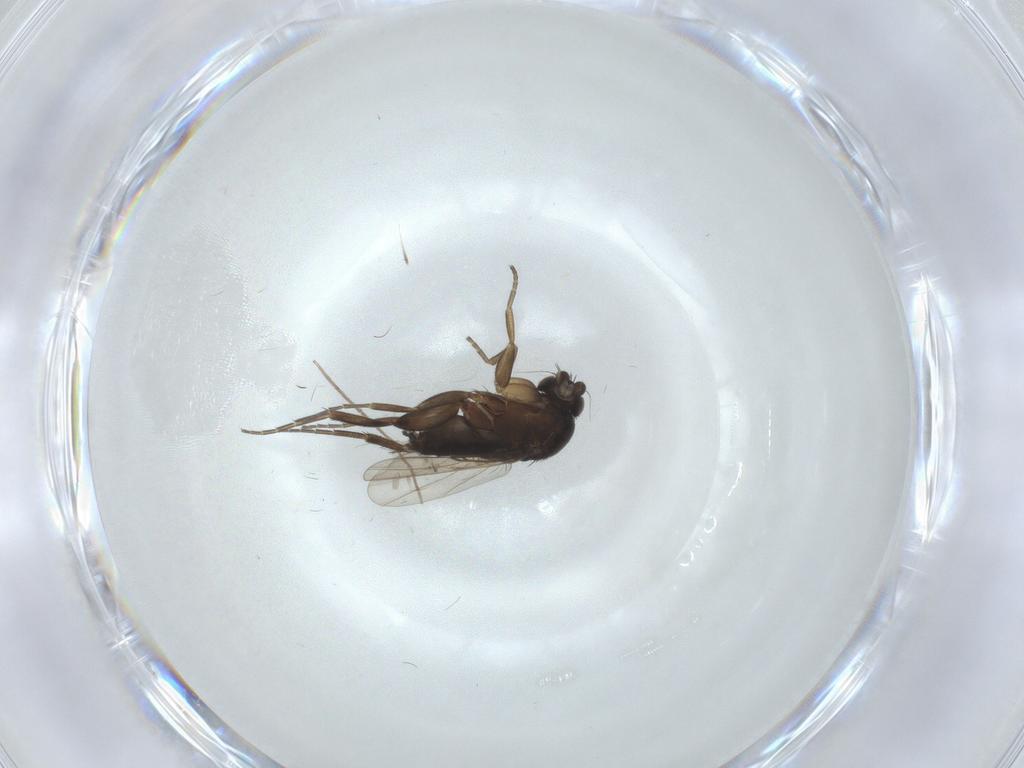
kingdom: Animalia
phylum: Arthropoda
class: Insecta
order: Diptera
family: Phoridae
